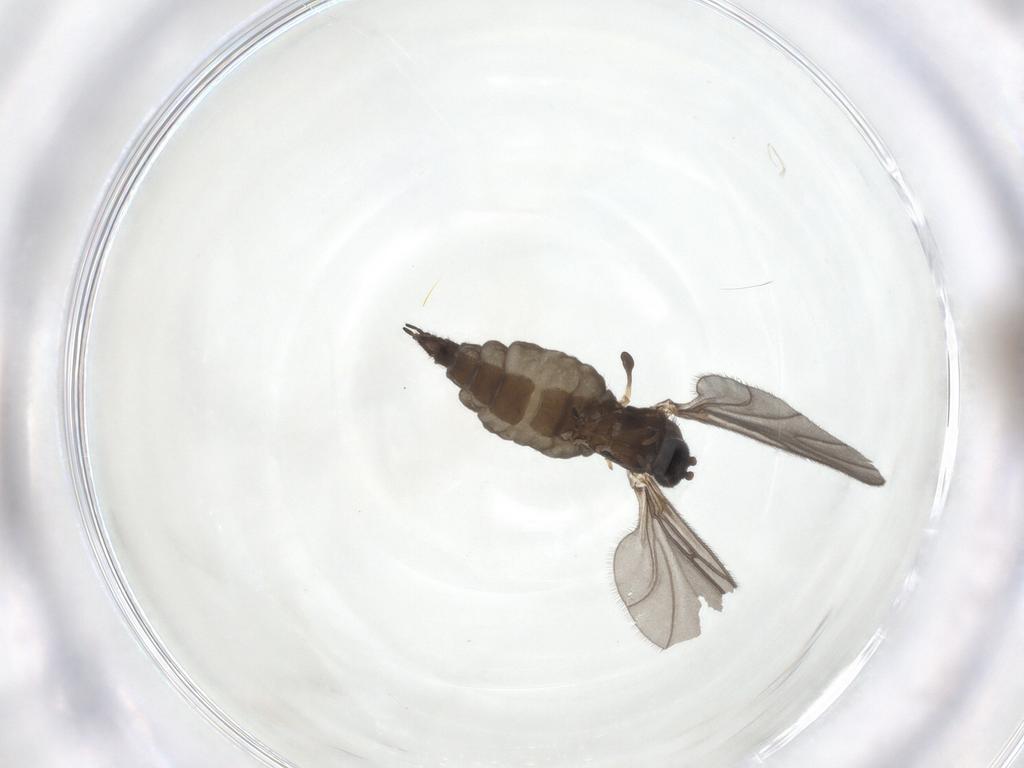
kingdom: Animalia
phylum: Arthropoda
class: Insecta
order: Diptera
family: Sciaridae
